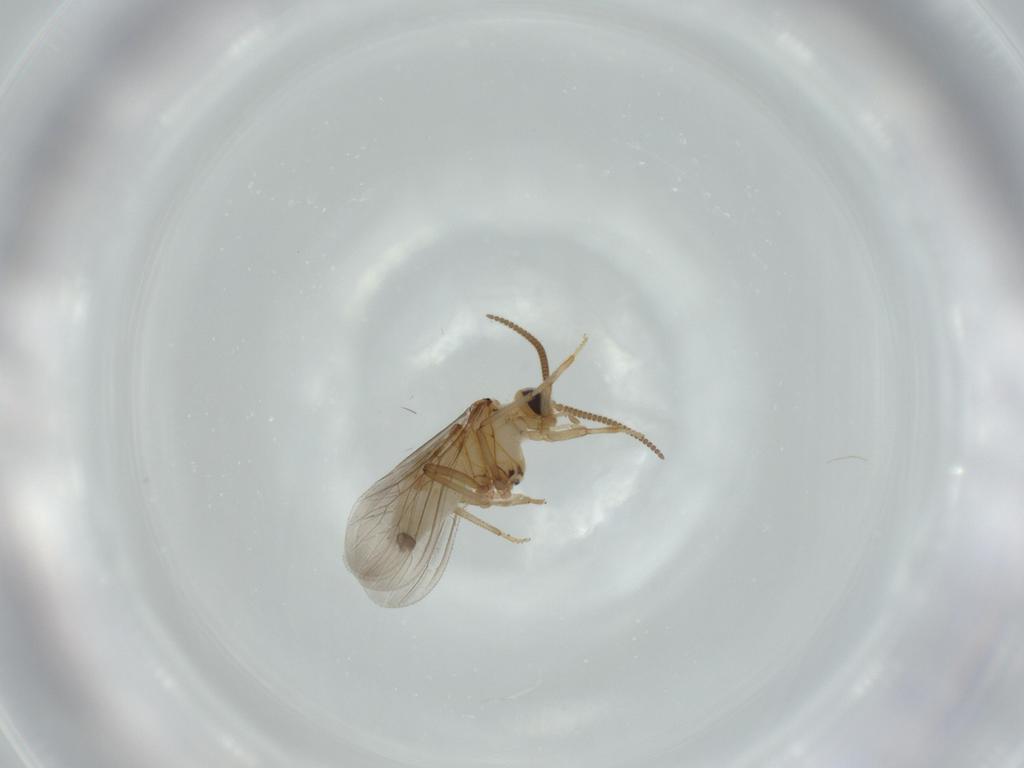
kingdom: Animalia
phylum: Arthropoda
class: Insecta
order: Neuroptera
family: Coniopterygidae
